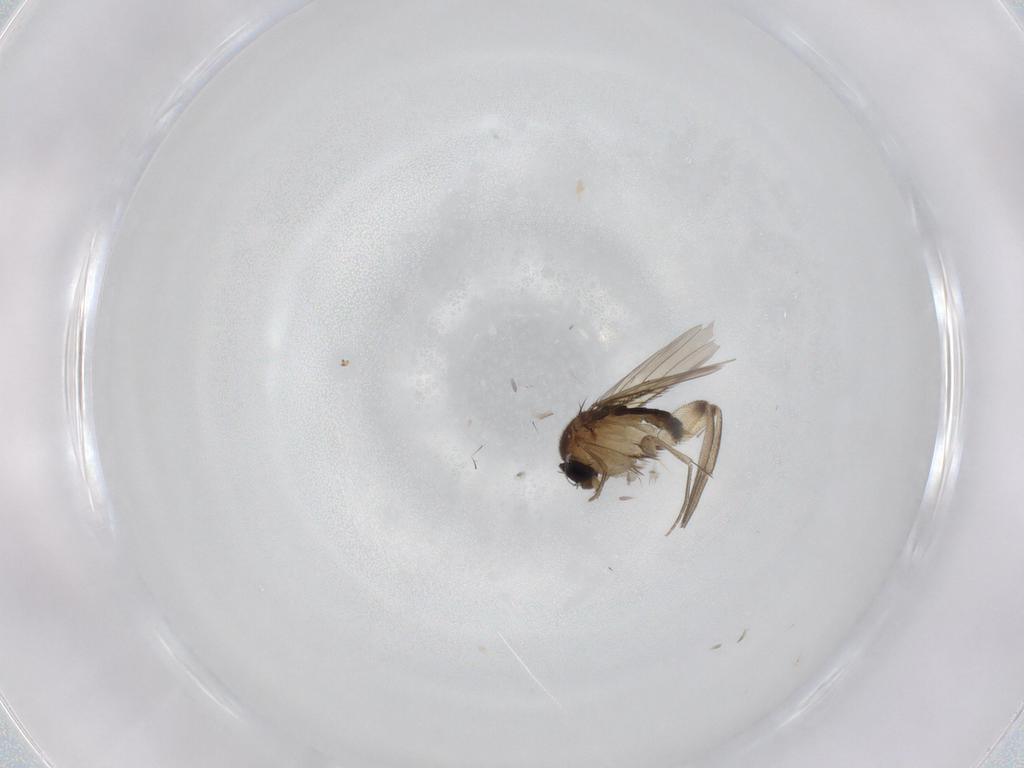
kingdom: Animalia
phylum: Arthropoda
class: Insecta
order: Diptera
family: Phoridae
